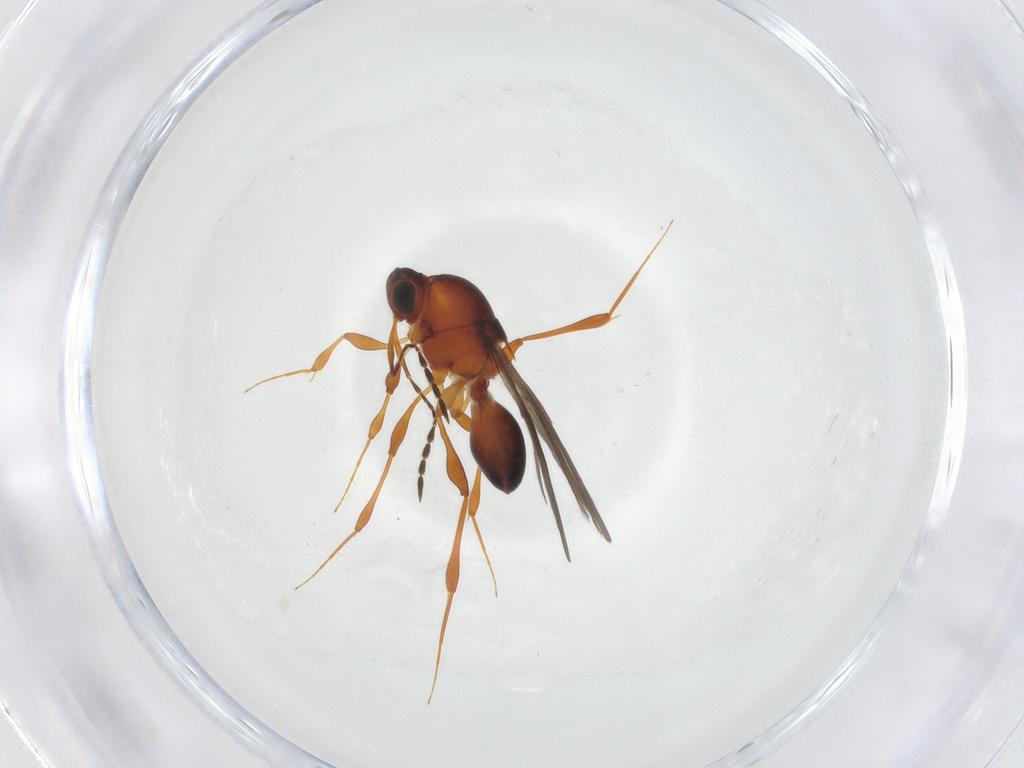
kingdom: Animalia
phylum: Arthropoda
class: Insecta
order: Hymenoptera
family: Platygastridae
